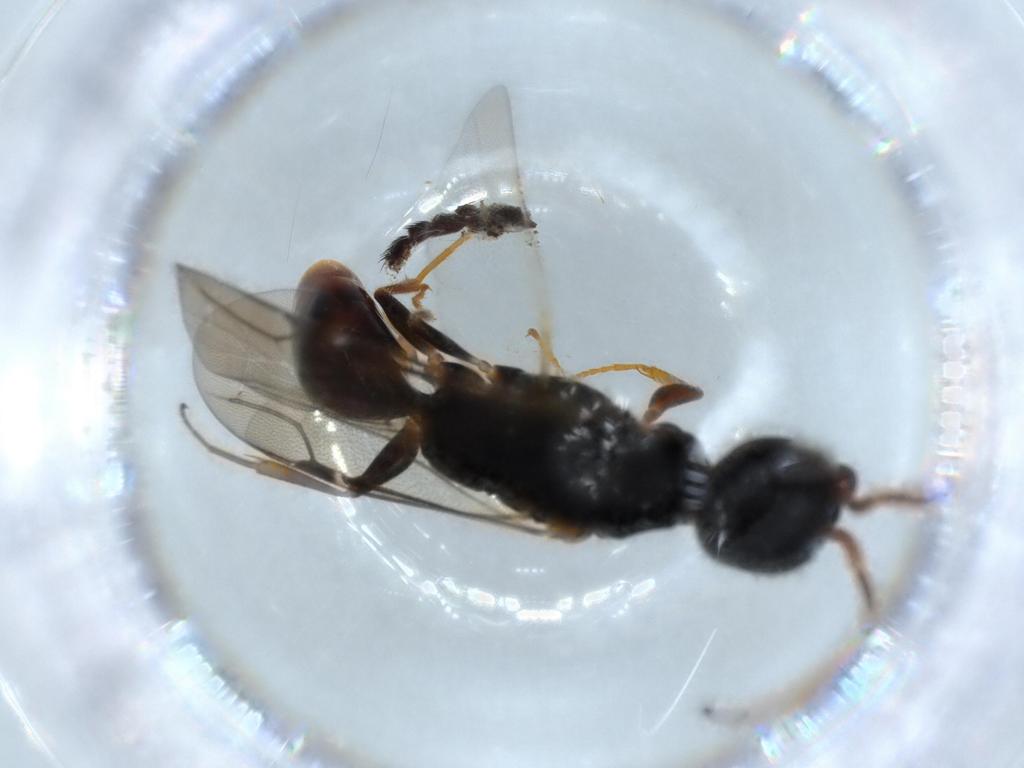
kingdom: Animalia
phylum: Arthropoda
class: Insecta
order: Hymenoptera
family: Bethylidae
